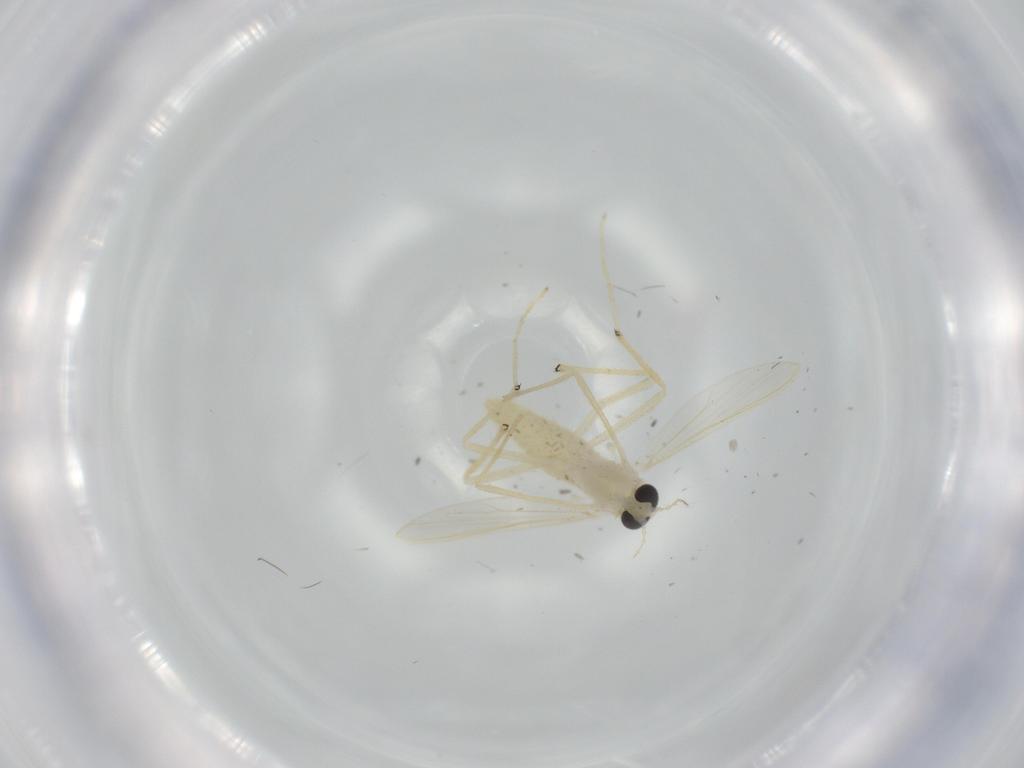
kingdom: Animalia
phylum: Arthropoda
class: Insecta
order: Diptera
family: Chironomidae
